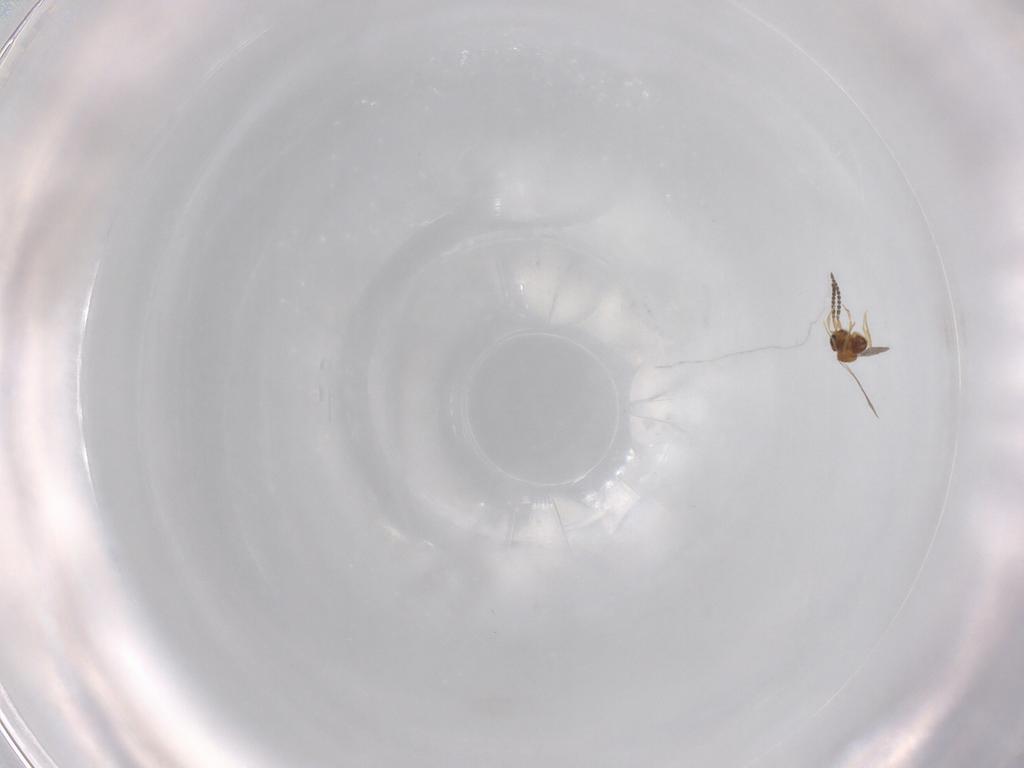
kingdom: Animalia
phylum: Arthropoda
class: Insecta
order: Hymenoptera
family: Ceraphronidae
